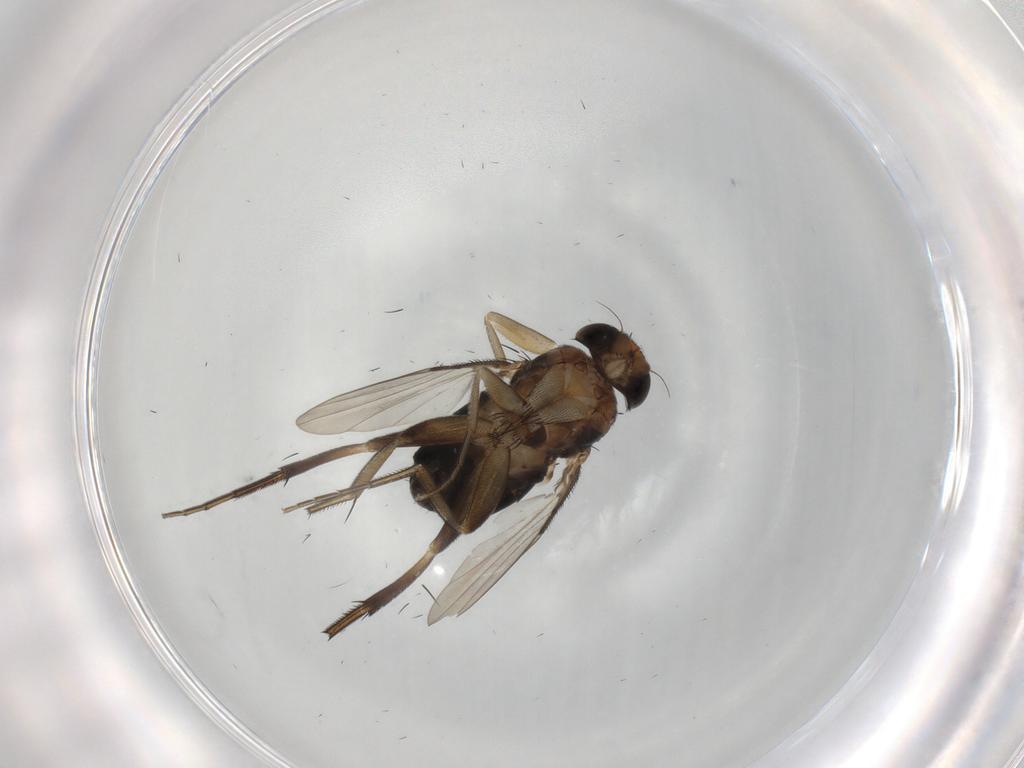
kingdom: Animalia
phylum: Arthropoda
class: Insecta
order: Diptera
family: Phoridae
